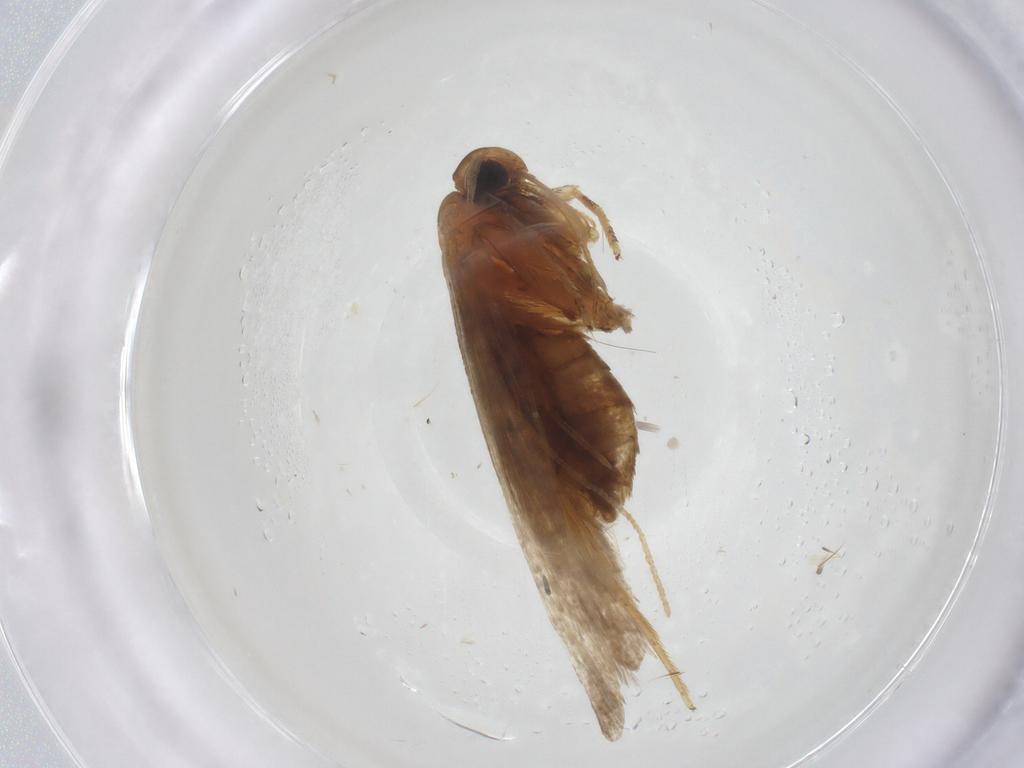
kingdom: Animalia
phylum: Arthropoda
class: Insecta
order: Lepidoptera
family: Lecithoceridae
